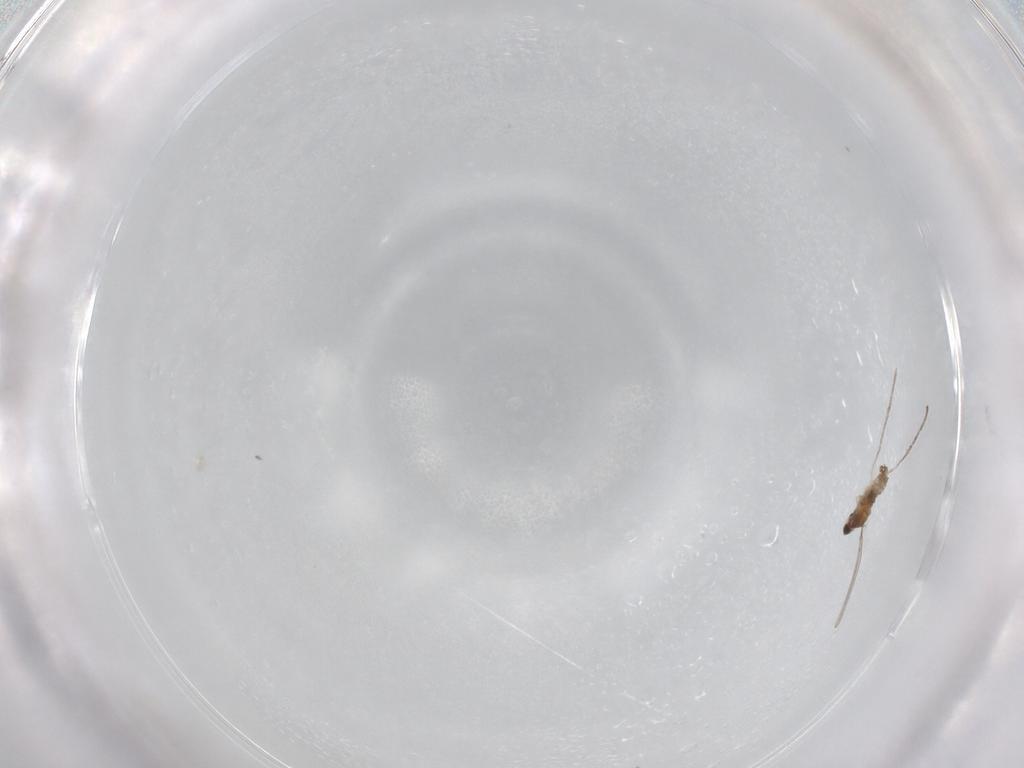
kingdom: Animalia
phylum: Arthropoda
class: Insecta
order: Diptera
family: Cecidomyiidae
